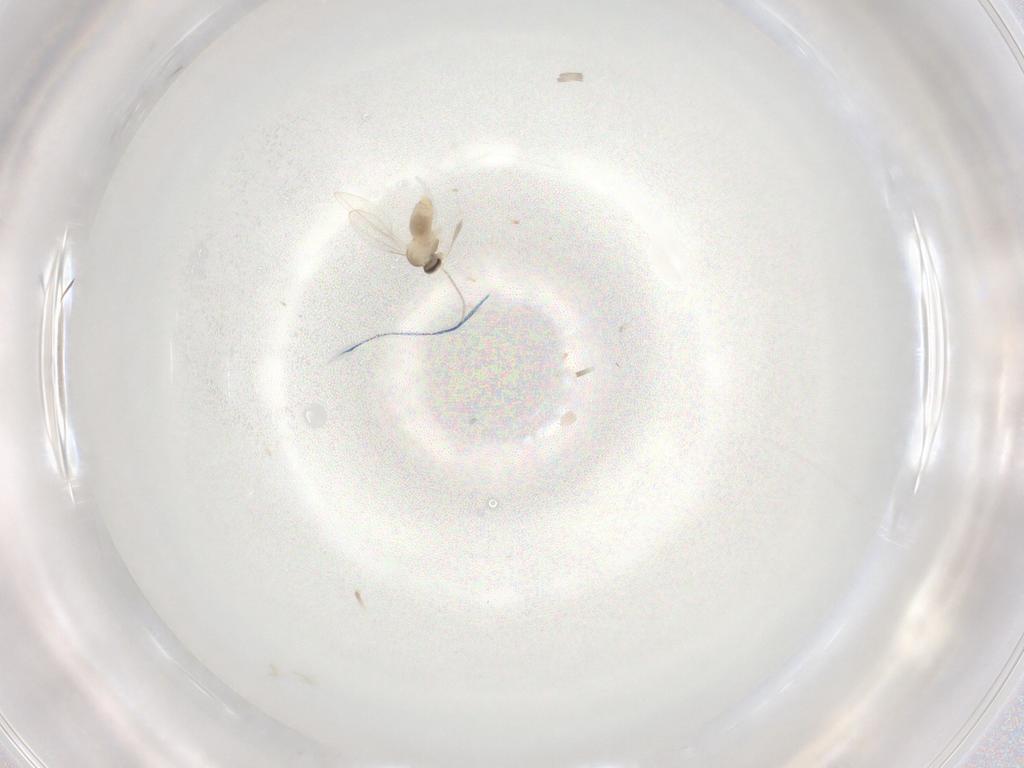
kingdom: Animalia
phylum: Arthropoda
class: Insecta
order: Diptera
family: Cecidomyiidae
